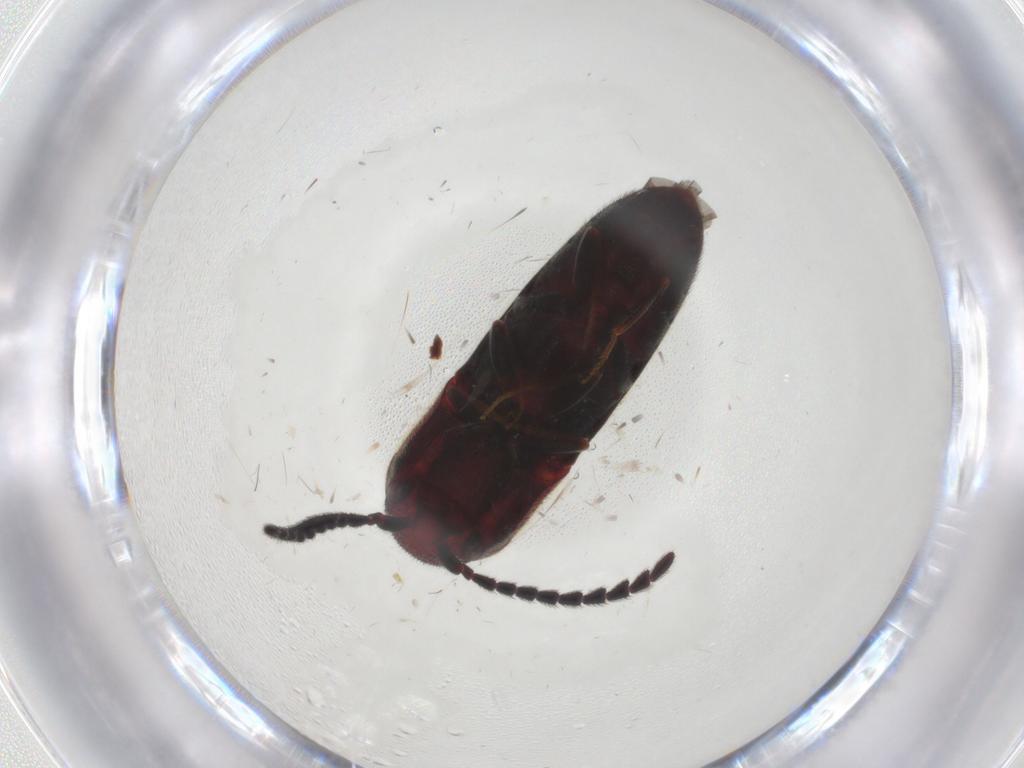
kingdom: Animalia
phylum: Arthropoda
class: Insecta
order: Coleoptera
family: Eucnemidae
